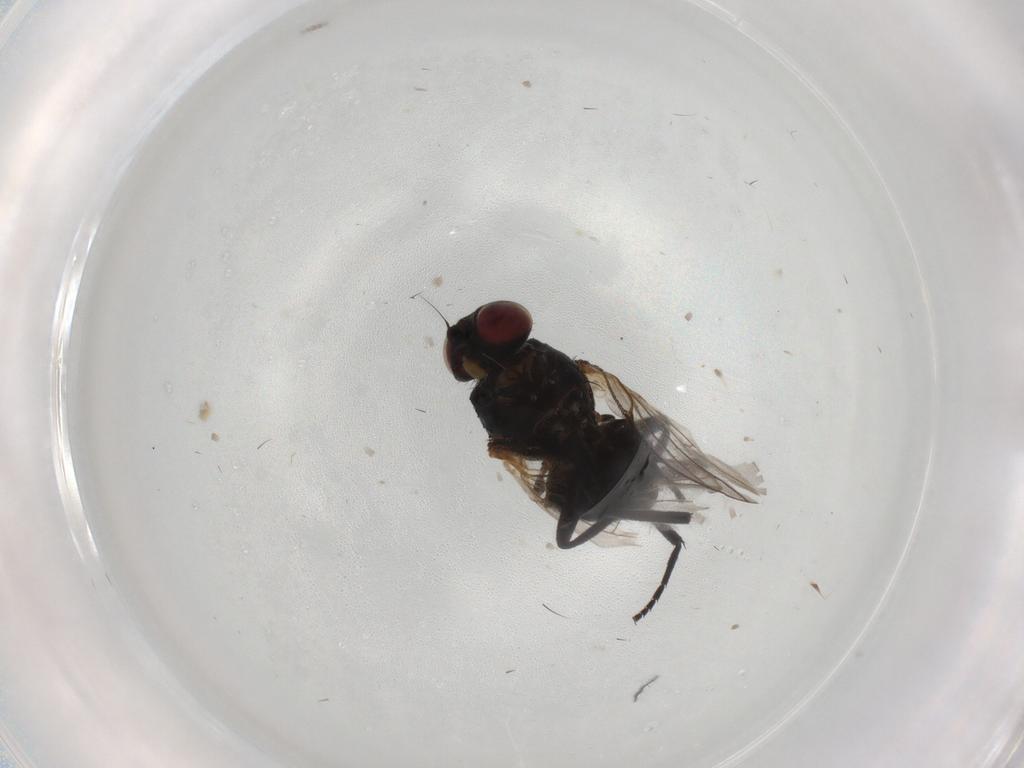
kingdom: Animalia
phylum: Arthropoda
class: Insecta
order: Diptera
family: Agromyzidae
